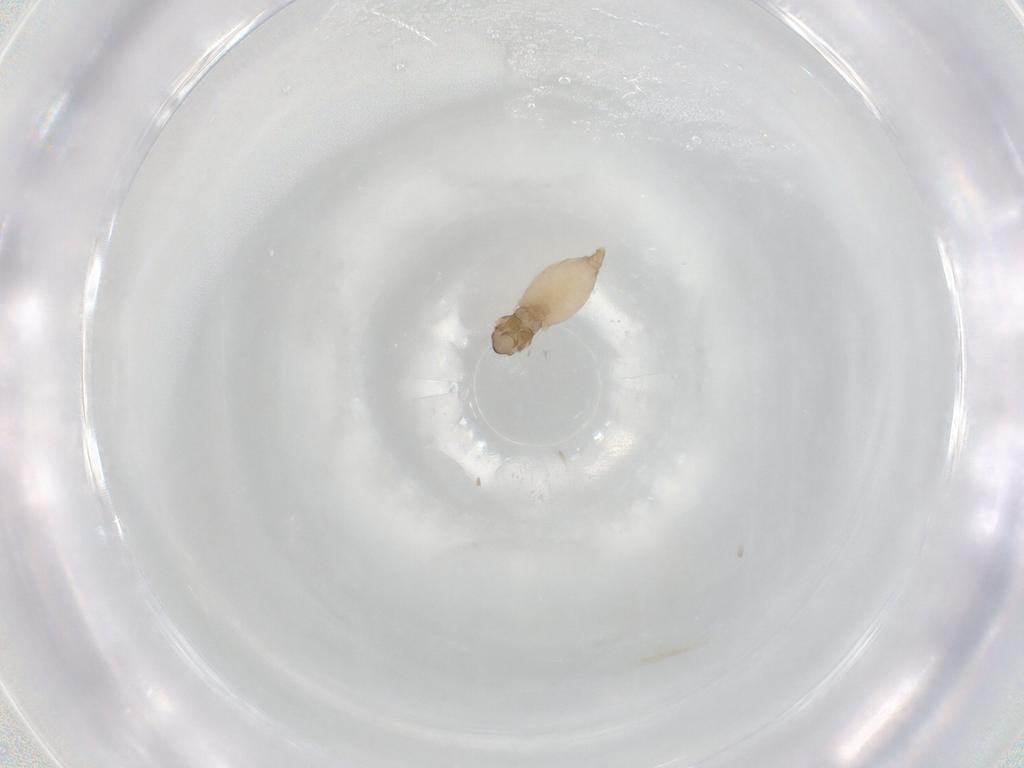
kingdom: Animalia
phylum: Arthropoda
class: Insecta
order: Diptera
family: Cecidomyiidae
